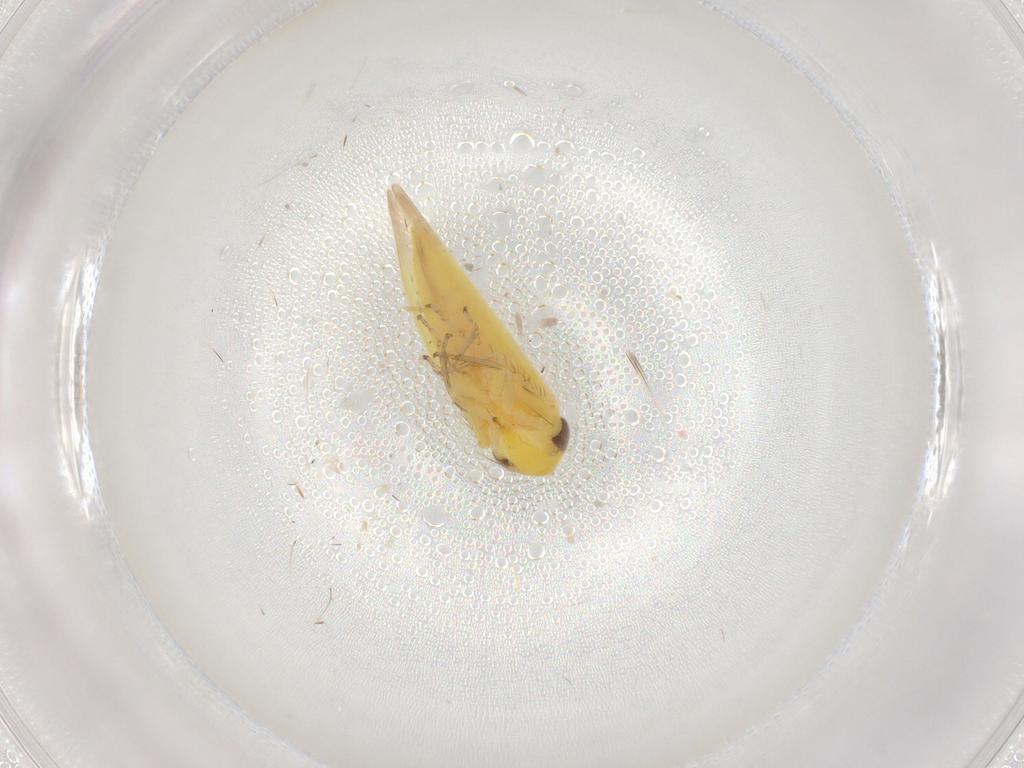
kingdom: Animalia
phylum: Arthropoda
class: Insecta
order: Hemiptera
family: Cicadellidae
